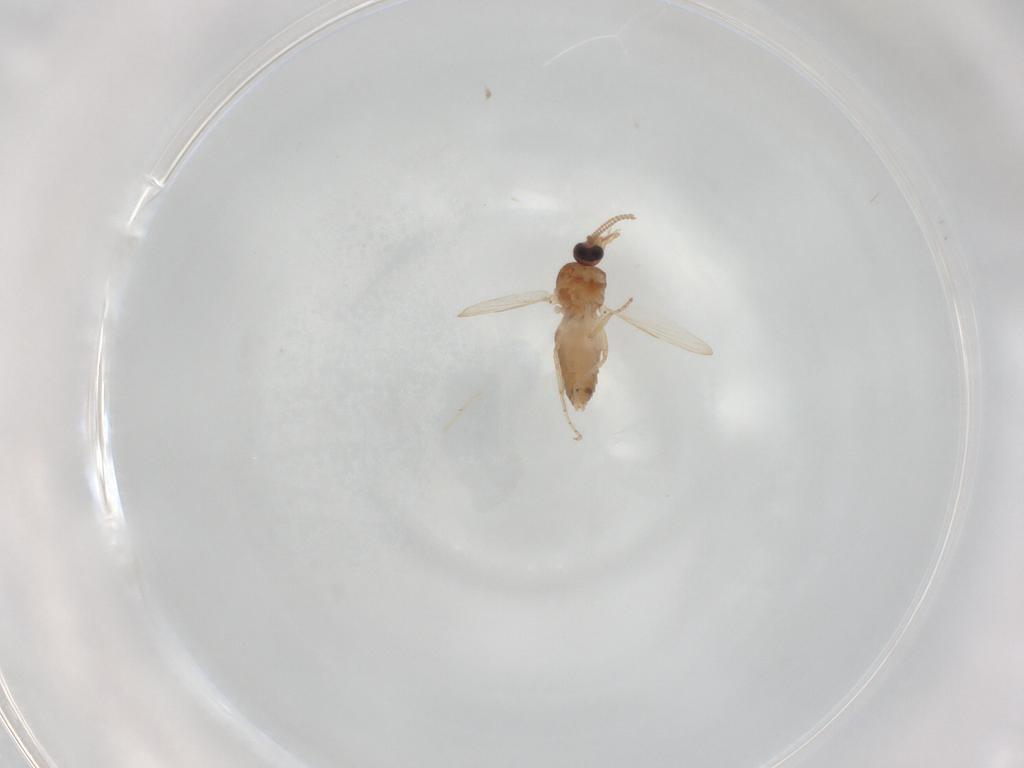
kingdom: Animalia
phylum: Arthropoda
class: Insecta
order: Diptera
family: Psychodidae
